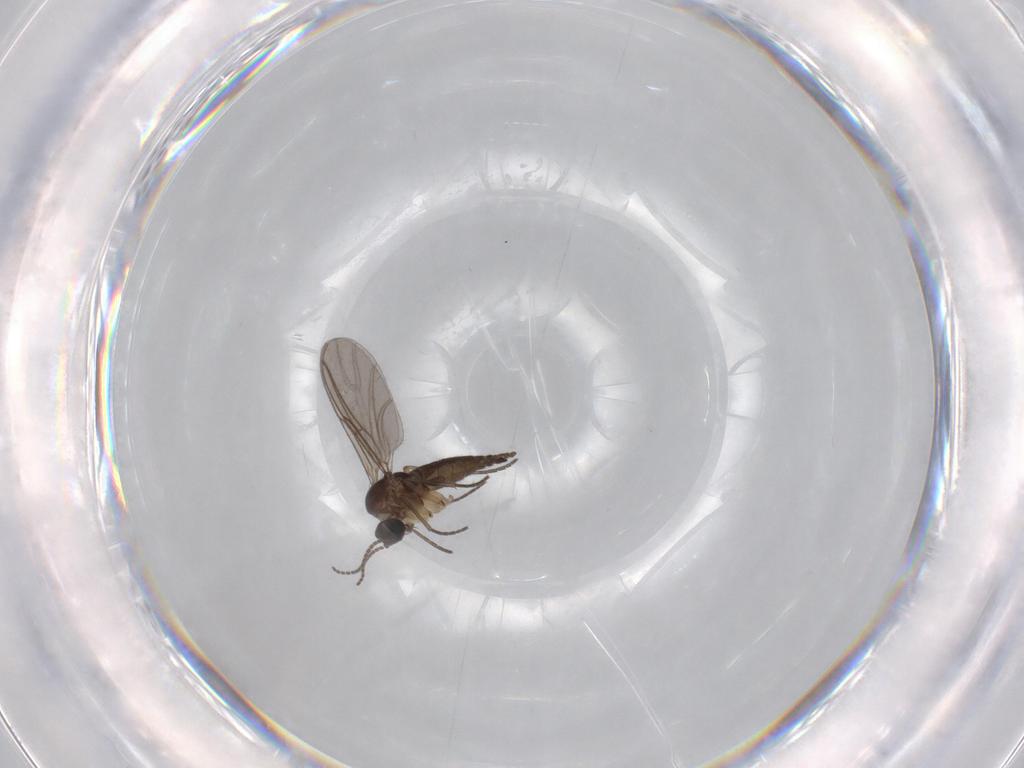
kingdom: Animalia
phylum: Arthropoda
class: Insecta
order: Diptera
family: Sciaridae
